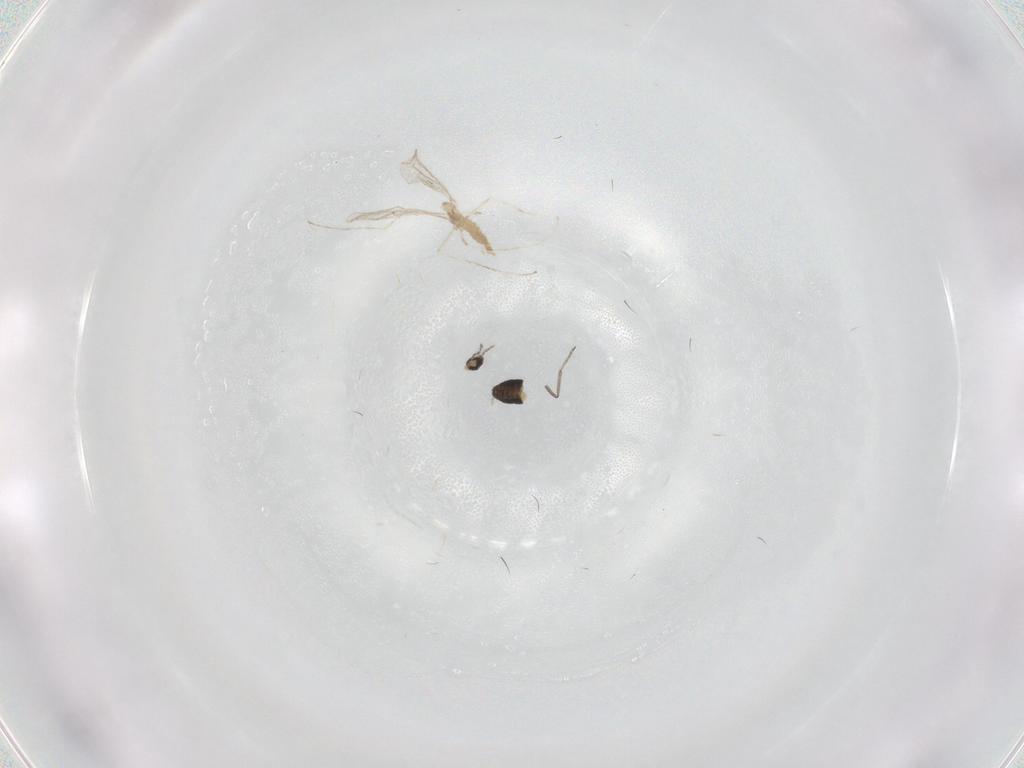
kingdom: Animalia
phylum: Arthropoda
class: Insecta
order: Diptera
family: Ceratopogonidae
